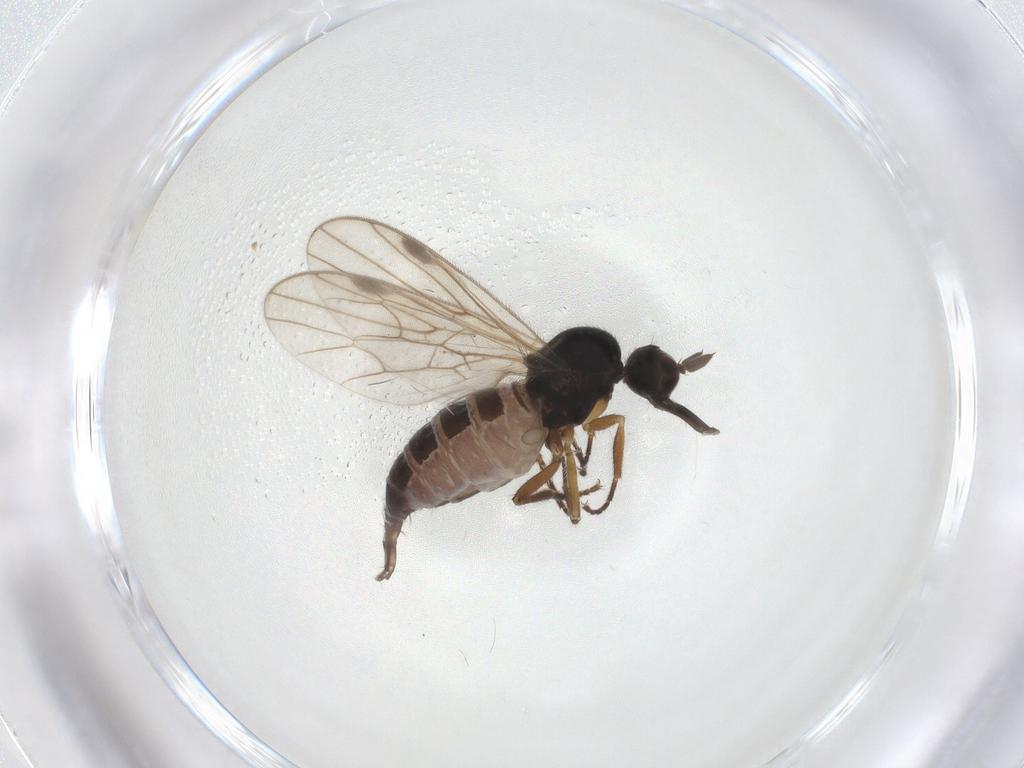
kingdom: Animalia
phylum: Arthropoda
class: Insecta
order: Diptera
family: Hybotidae
